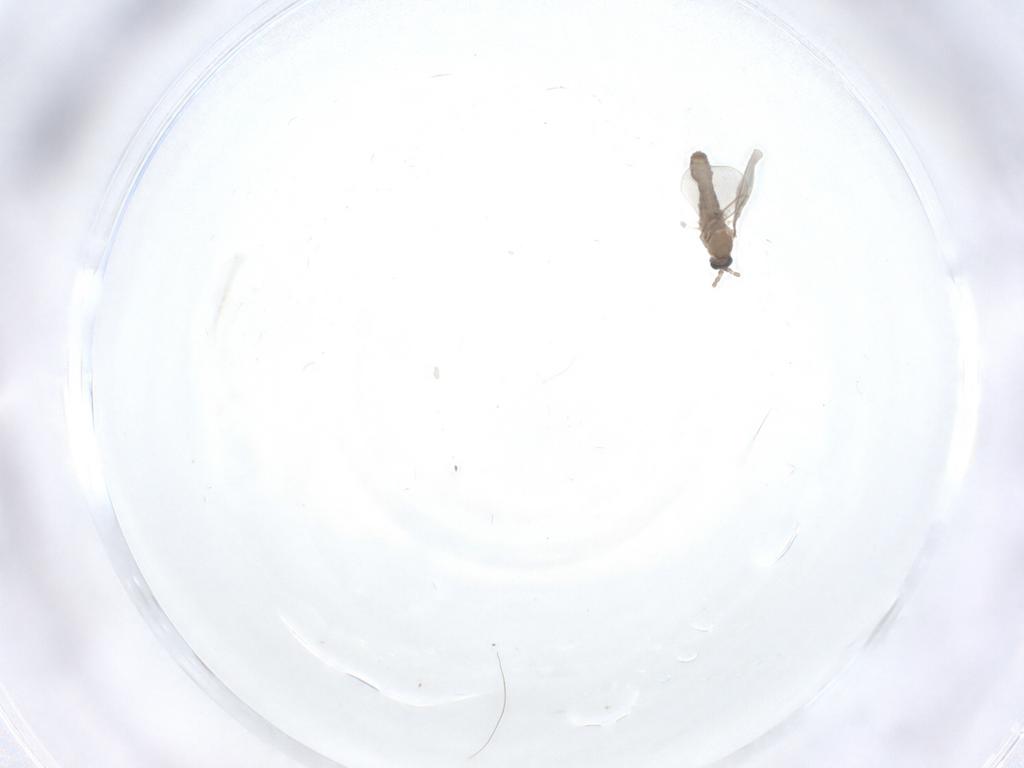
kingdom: Animalia
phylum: Arthropoda
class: Insecta
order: Diptera
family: Cecidomyiidae
